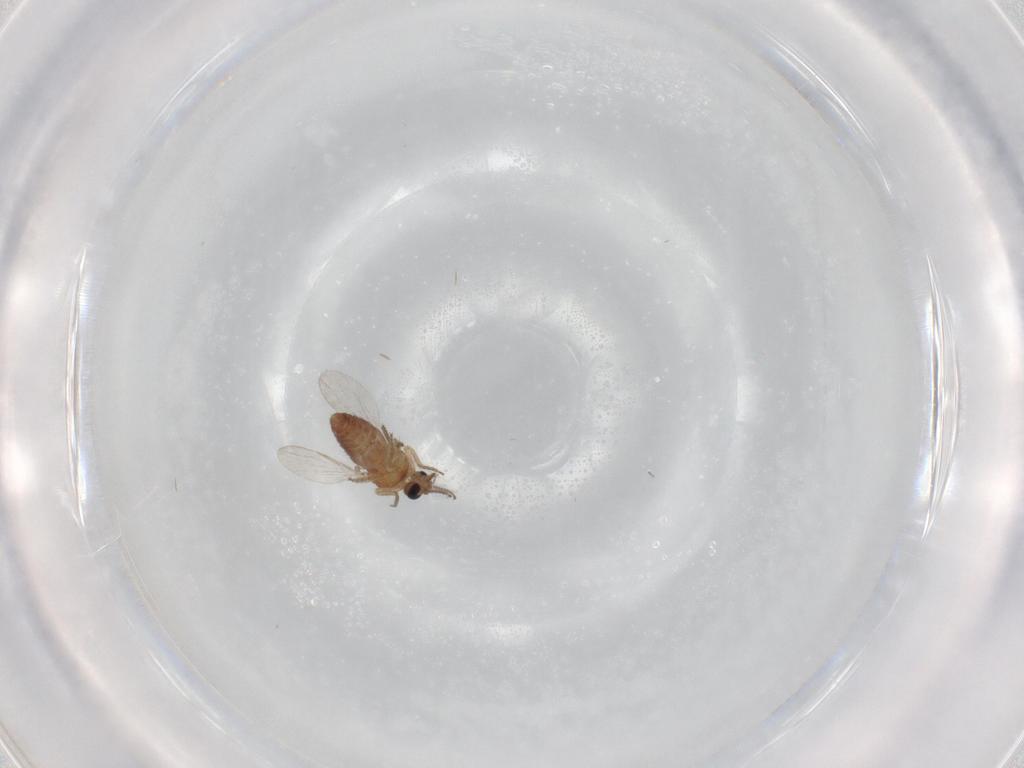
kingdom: Animalia
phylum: Arthropoda
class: Insecta
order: Diptera
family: Ceratopogonidae
